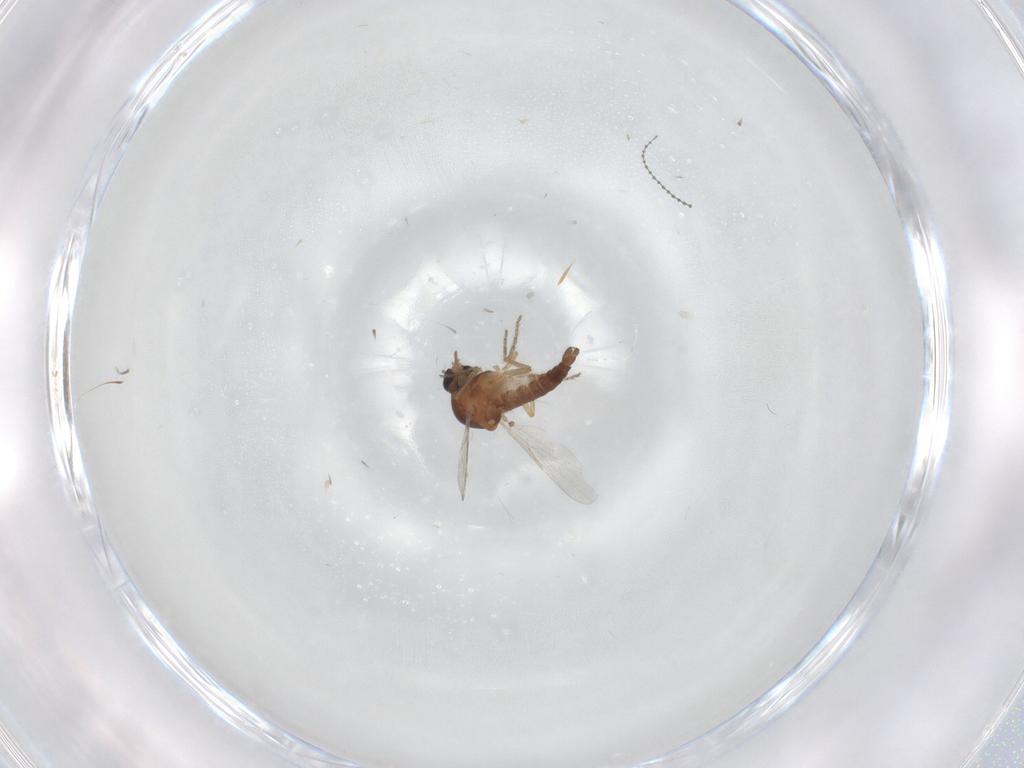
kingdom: Animalia
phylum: Arthropoda
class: Insecta
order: Diptera
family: Ceratopogonidae
